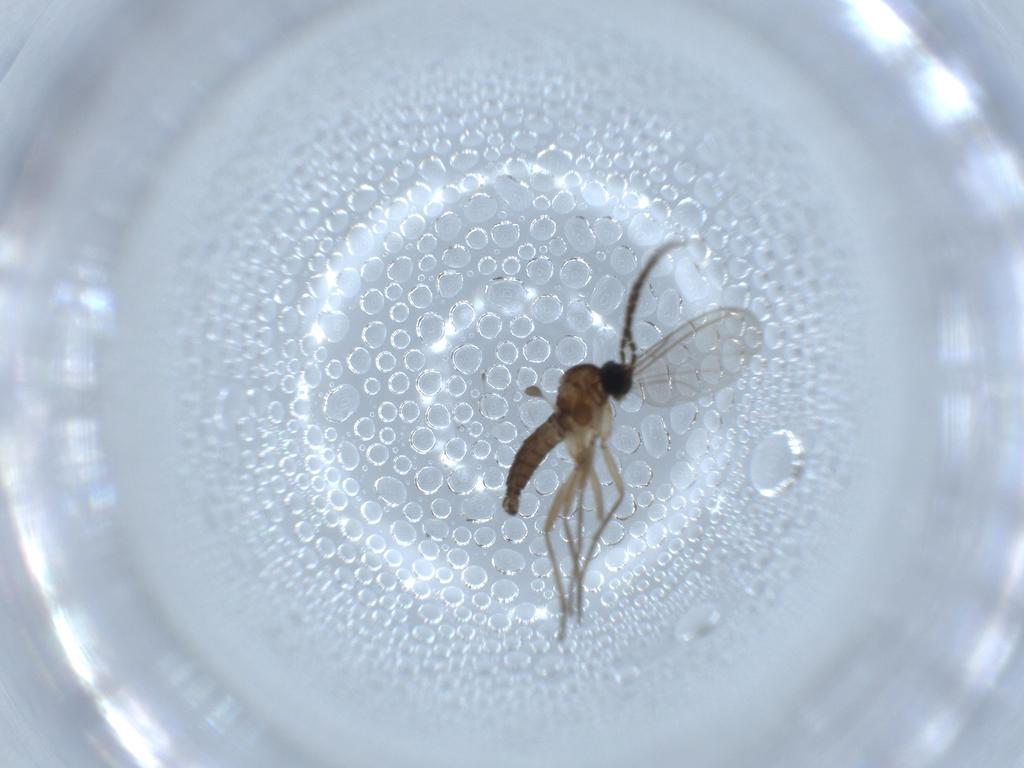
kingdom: Animalia
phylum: Arthropoda
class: Insecta
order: Diptera
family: Sciaridae
